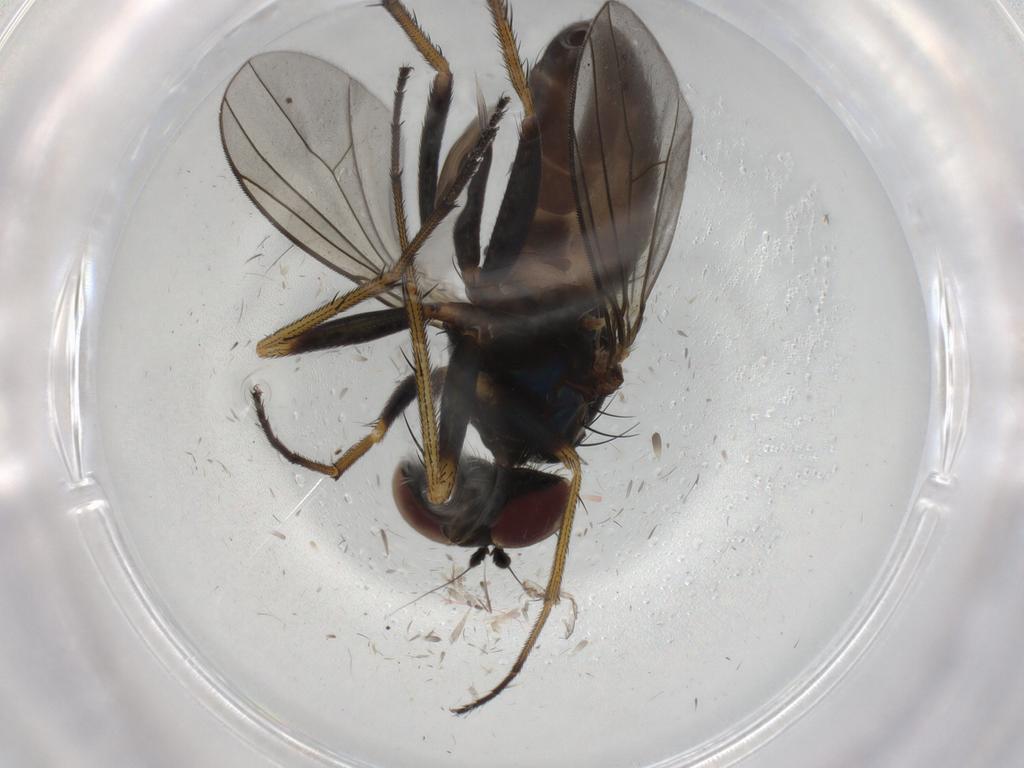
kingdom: Animalia
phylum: Arthropoda
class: Insecta
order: Diptera
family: Dolichopodidae
